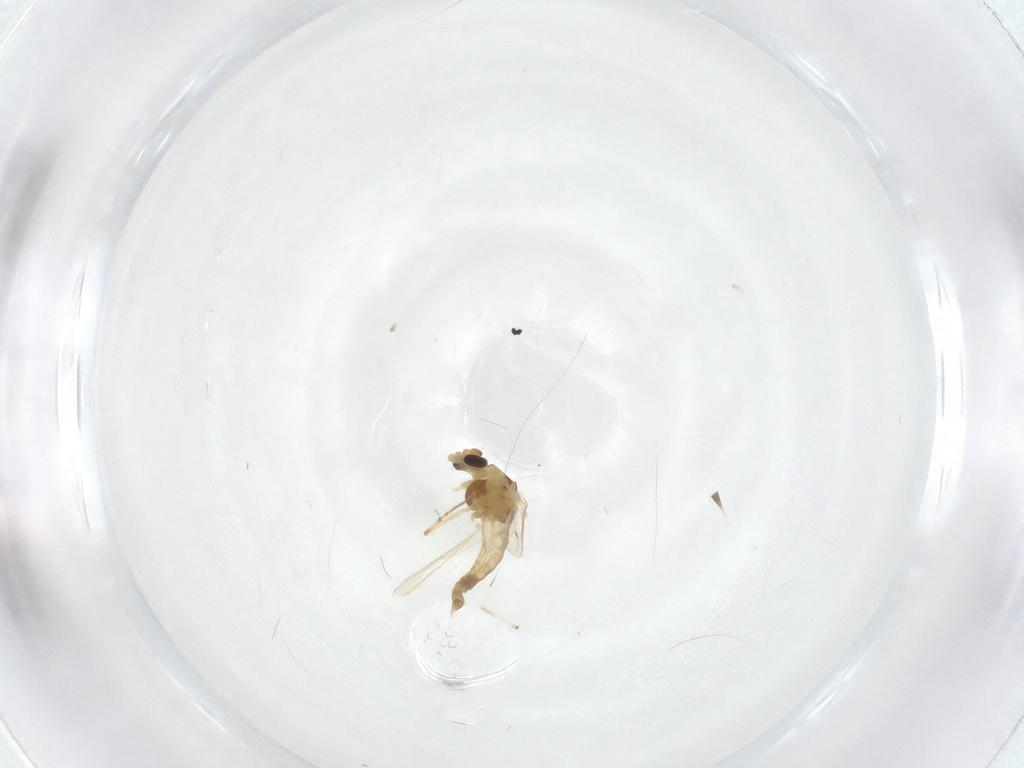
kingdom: Animalia
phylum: Arthropoda
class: Insecta
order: Diptera
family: Chironomidae
